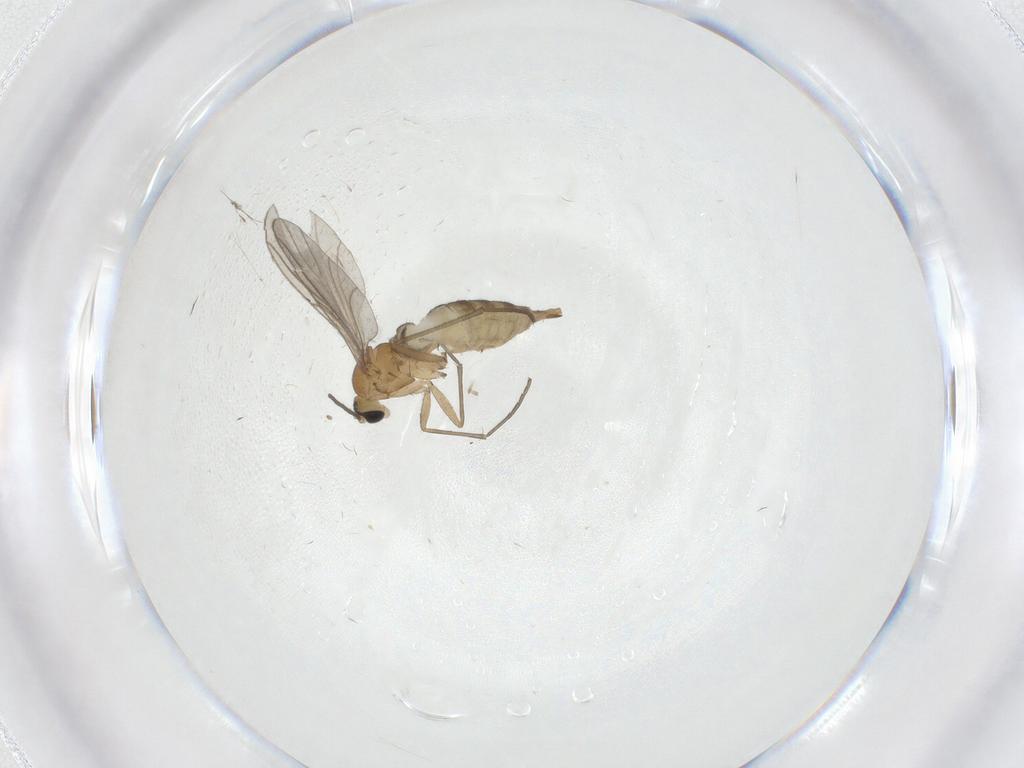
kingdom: Animalia
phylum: Arthropoda
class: Insecta
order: Diptera
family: Sciaridae
